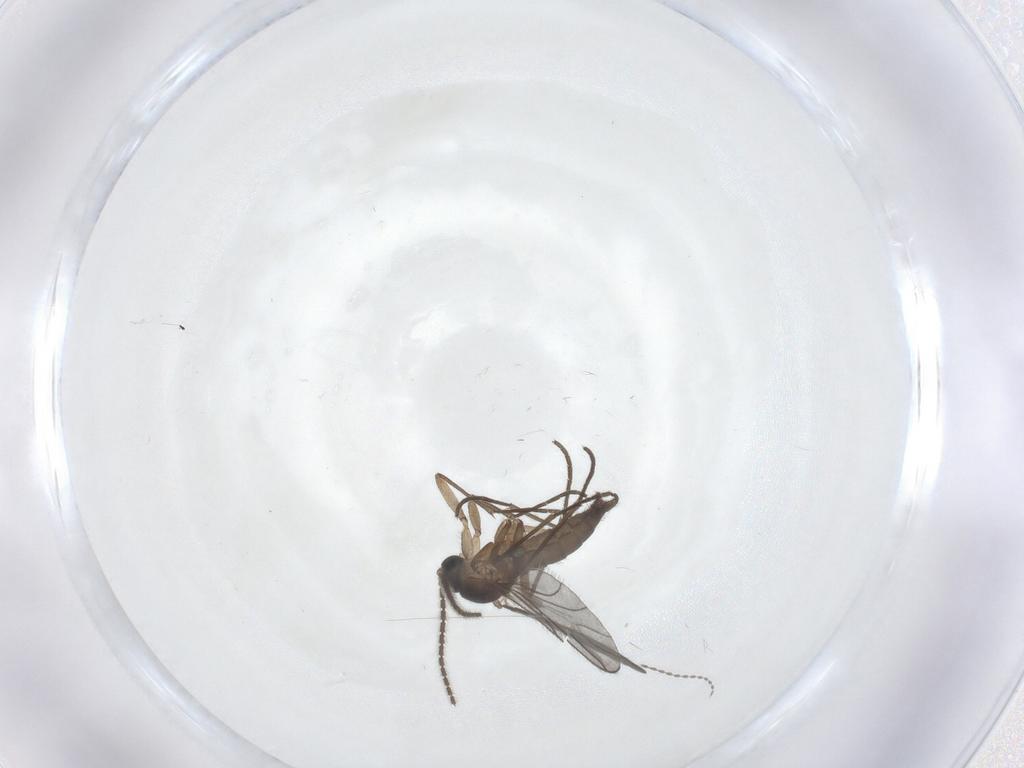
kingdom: Animalia
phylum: Arthropoda
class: Insecta
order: Diptera
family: Cecidomyiidae
